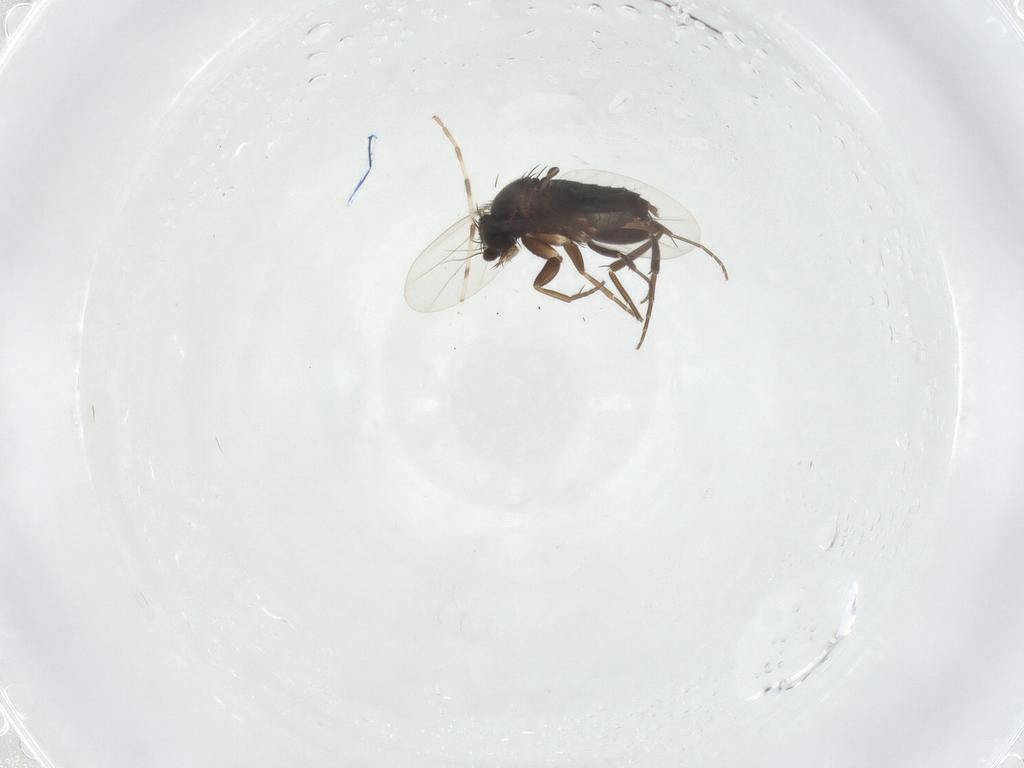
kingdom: Animalia
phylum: Arthropoda
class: Insecta
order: Diptera
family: Phoridae
